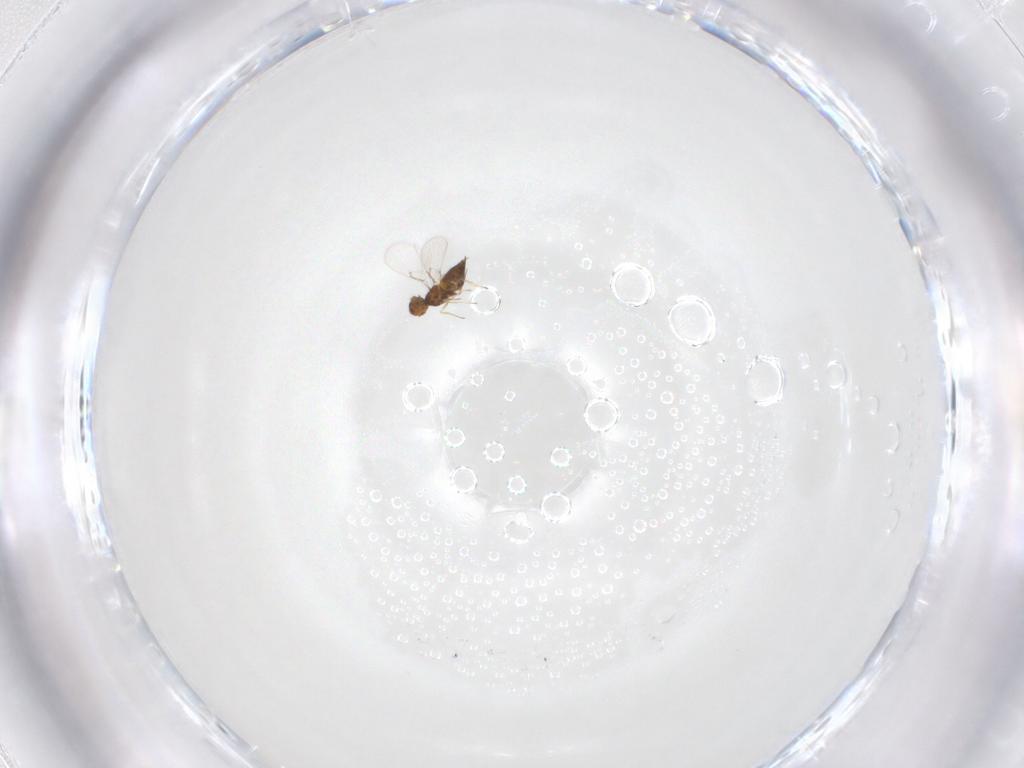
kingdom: Animalia
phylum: Arthropoda
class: Insecta
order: Hymenoptera
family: Trichogrammatidae
